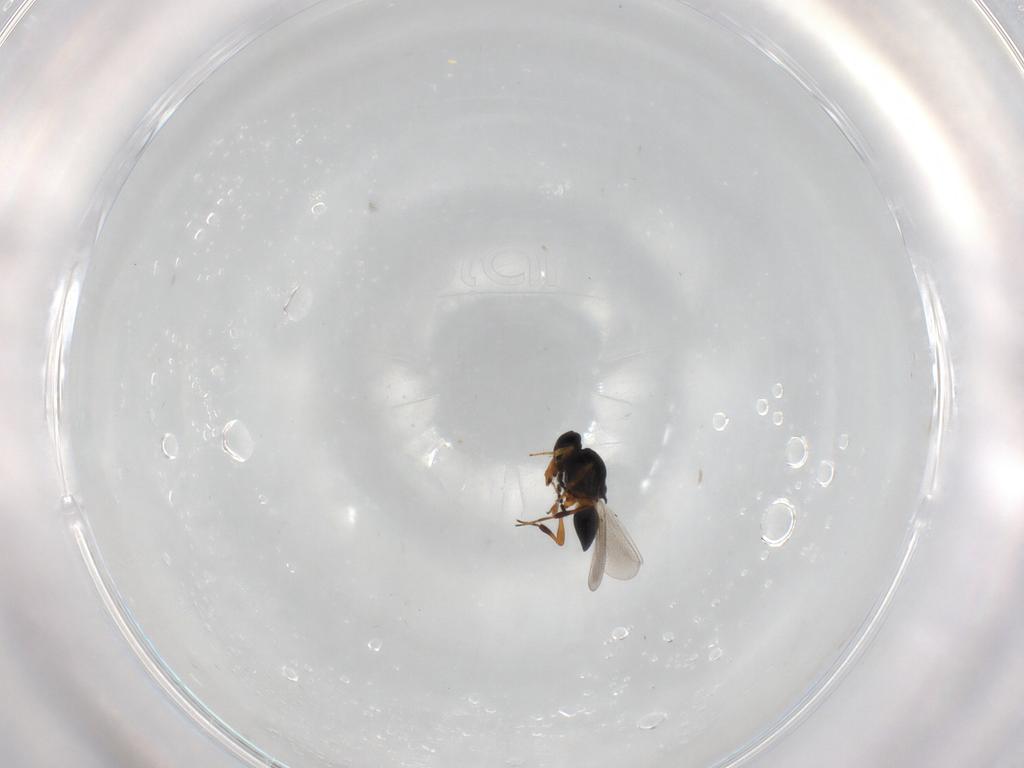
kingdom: Animalia
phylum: Arthropoda
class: Insecta
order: Hymenoptera
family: Platygastridae
